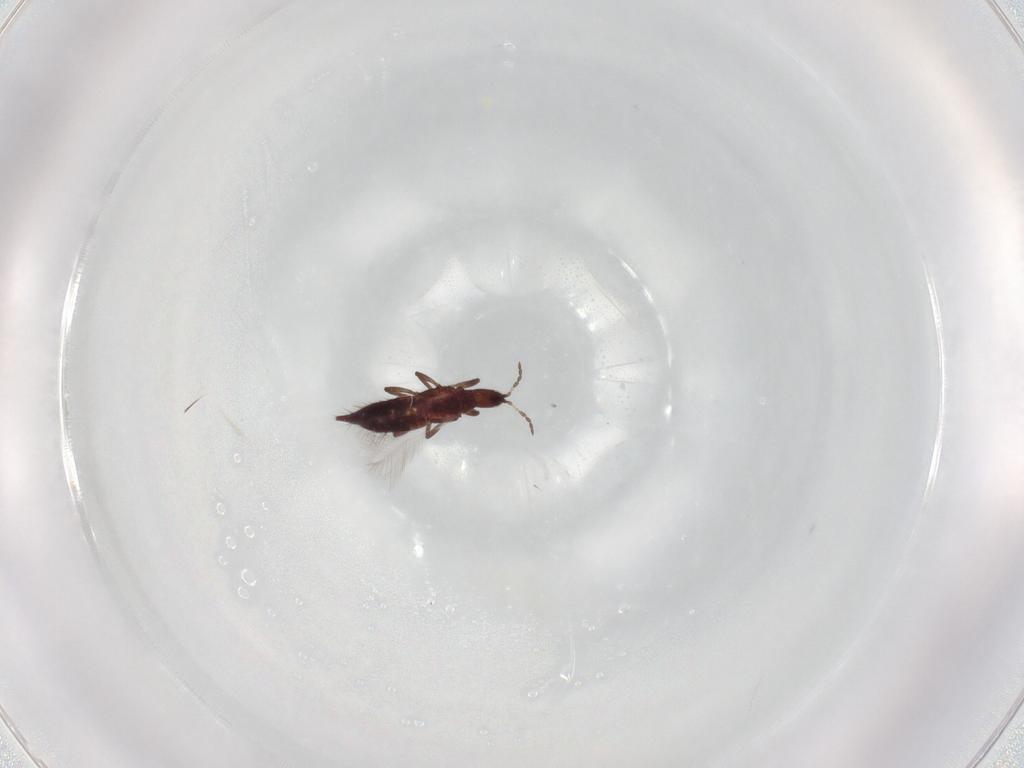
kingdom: Animalia
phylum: Arthropoda
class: Insecta
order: Thysanoptera
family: Phlaeothripidae
